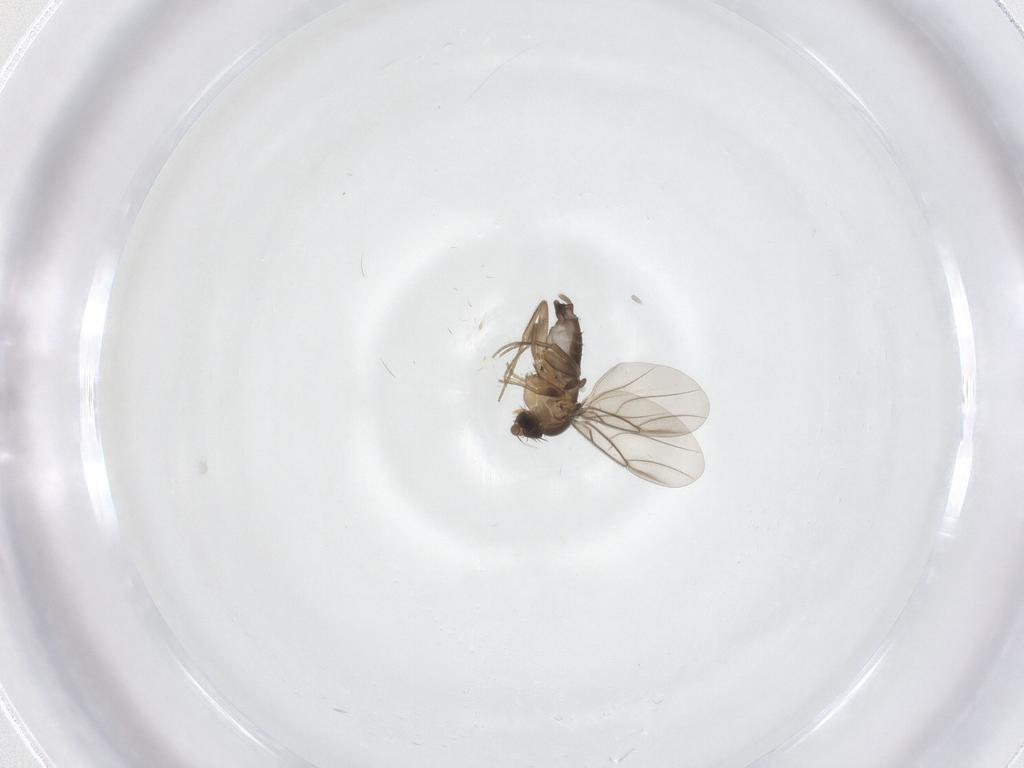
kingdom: Animalia
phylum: Arthropoda
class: Insecta
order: Diptera
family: Phoridae
